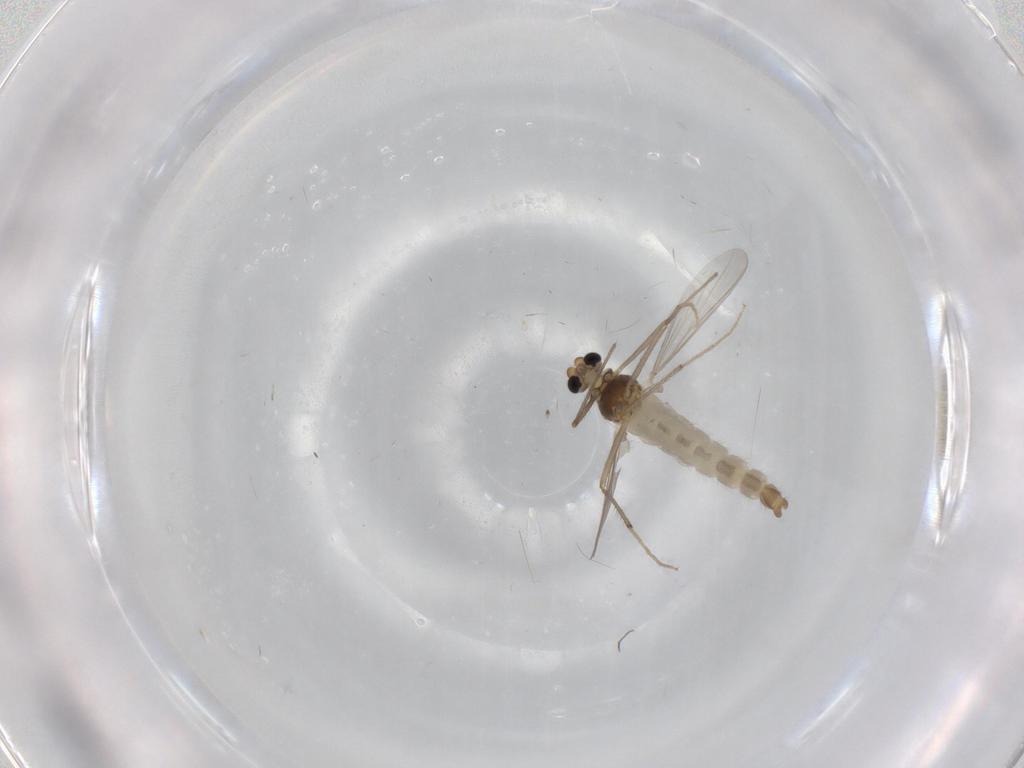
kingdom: Animalia
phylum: Arthropoda
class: Insecta
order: Diptera
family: Chironomidae
